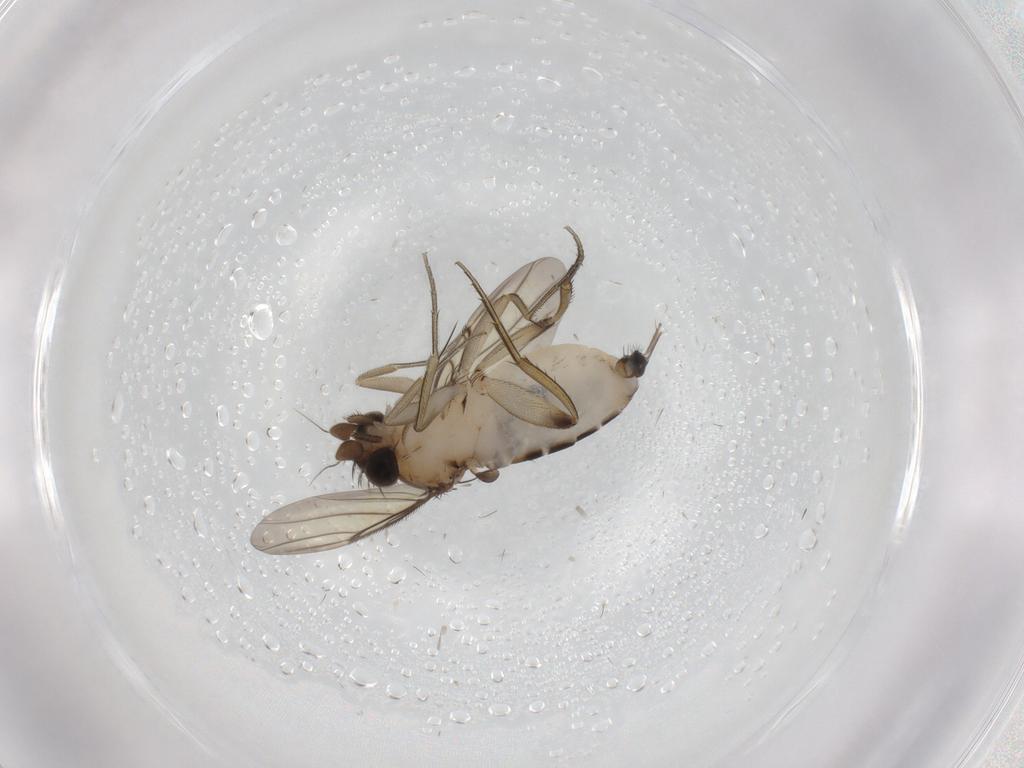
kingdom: Animalia
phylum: Arthropoda
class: Insecta
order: Diptera
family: Phoridae
